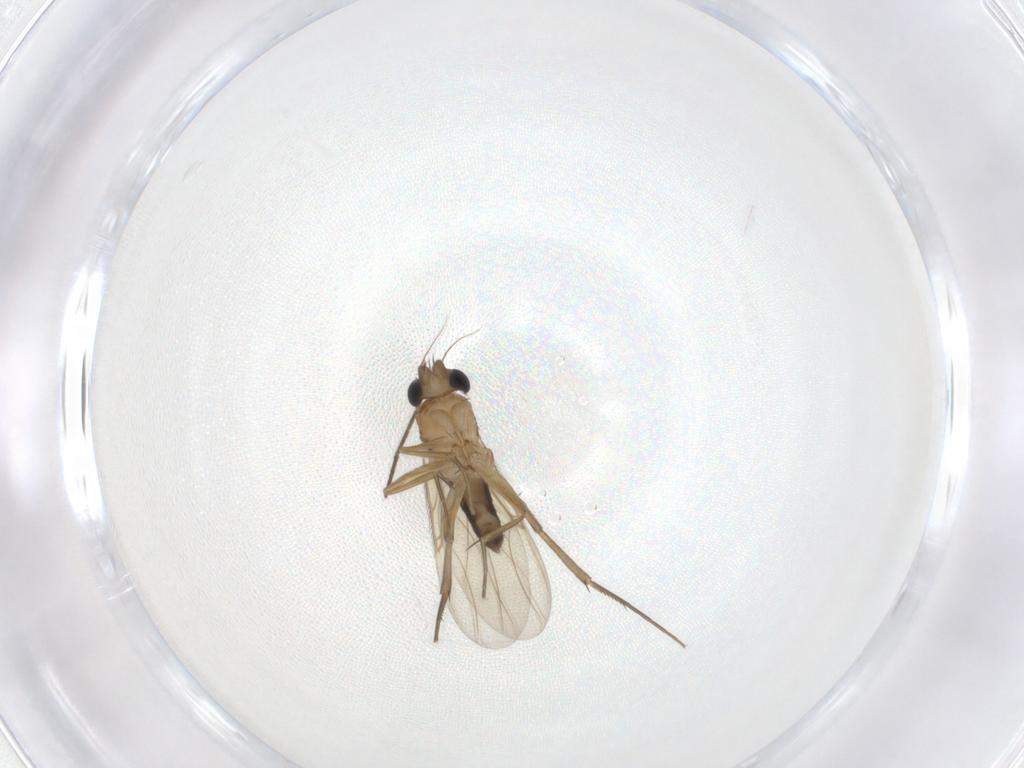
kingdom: Animalia
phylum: Arthropoda
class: Insecta
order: Diptera
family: Phoridae
